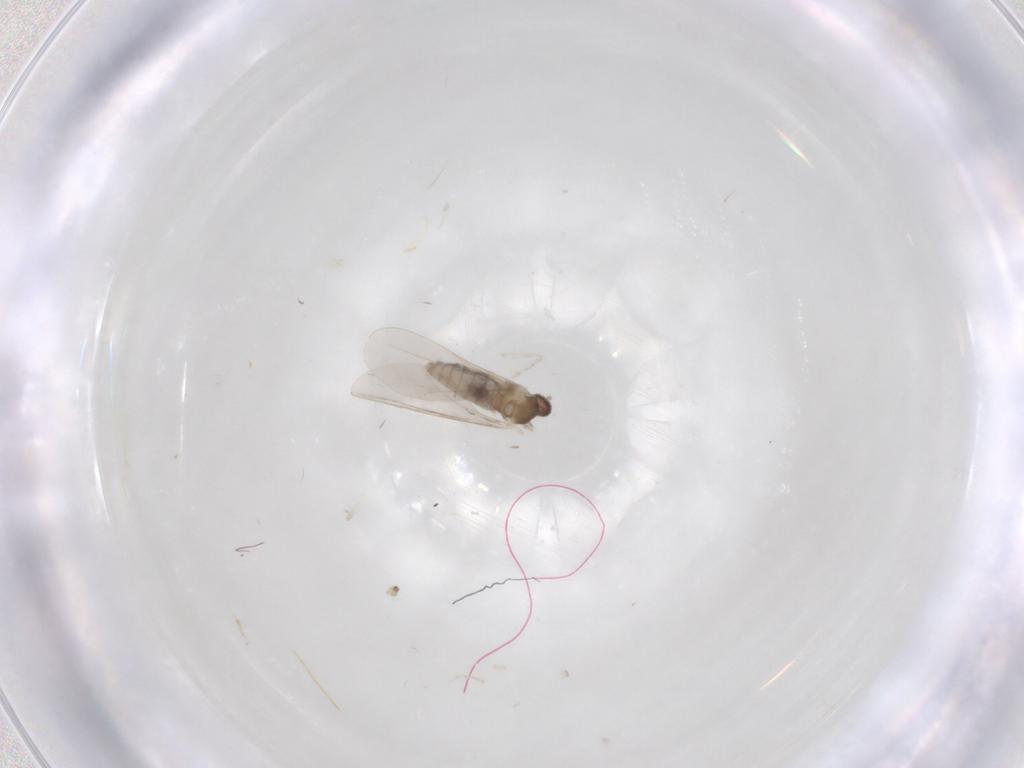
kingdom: Animalia
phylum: Arthropoda
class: Insecta
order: Diptera
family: Cecidomyiidae
